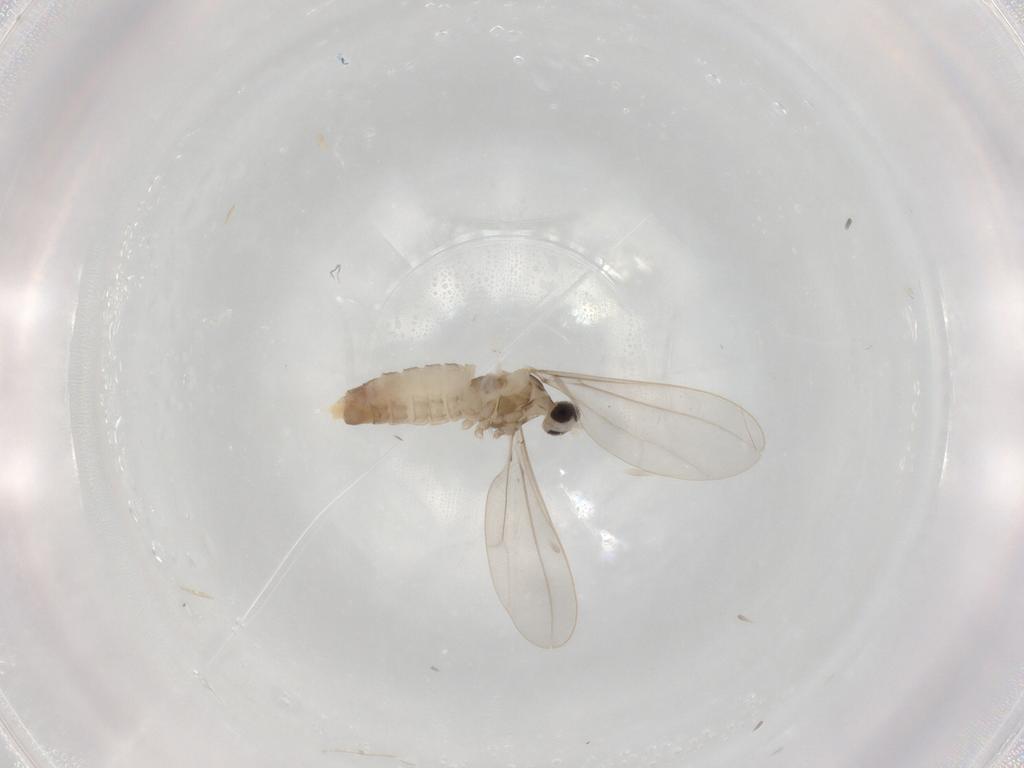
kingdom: Animalia
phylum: Arthropoda
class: Insecta
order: Diptera
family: Cecidomyiidae
